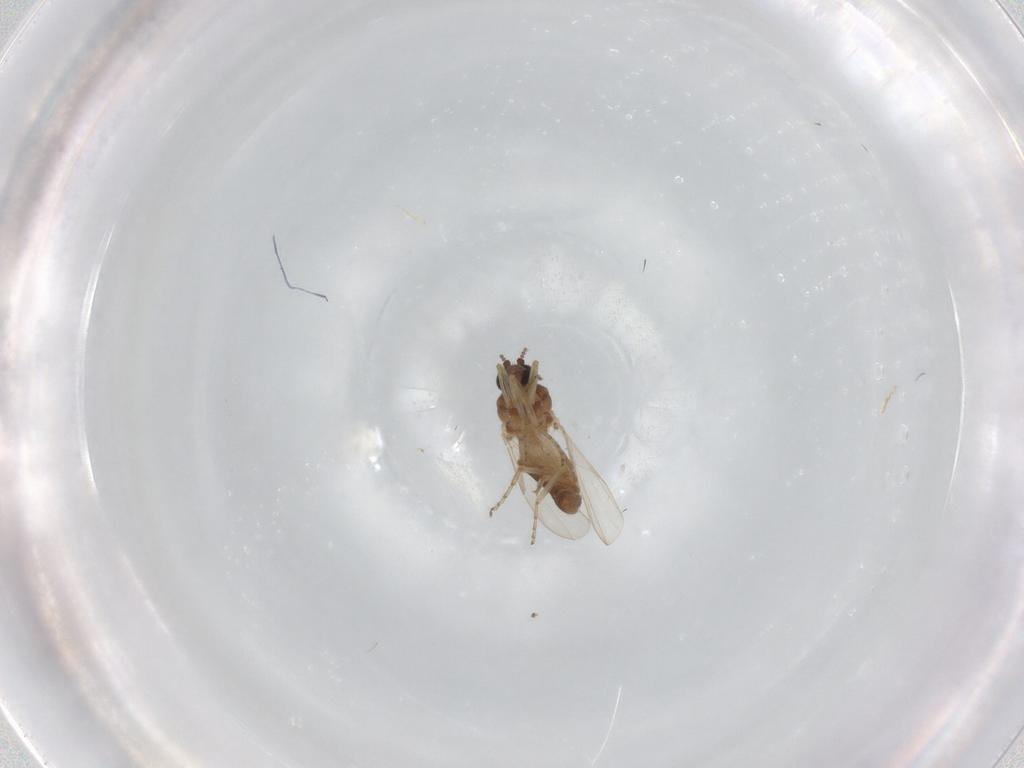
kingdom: Animalia
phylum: Arthropoda
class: Insecta
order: Diptera
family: Ceratopogonidae
